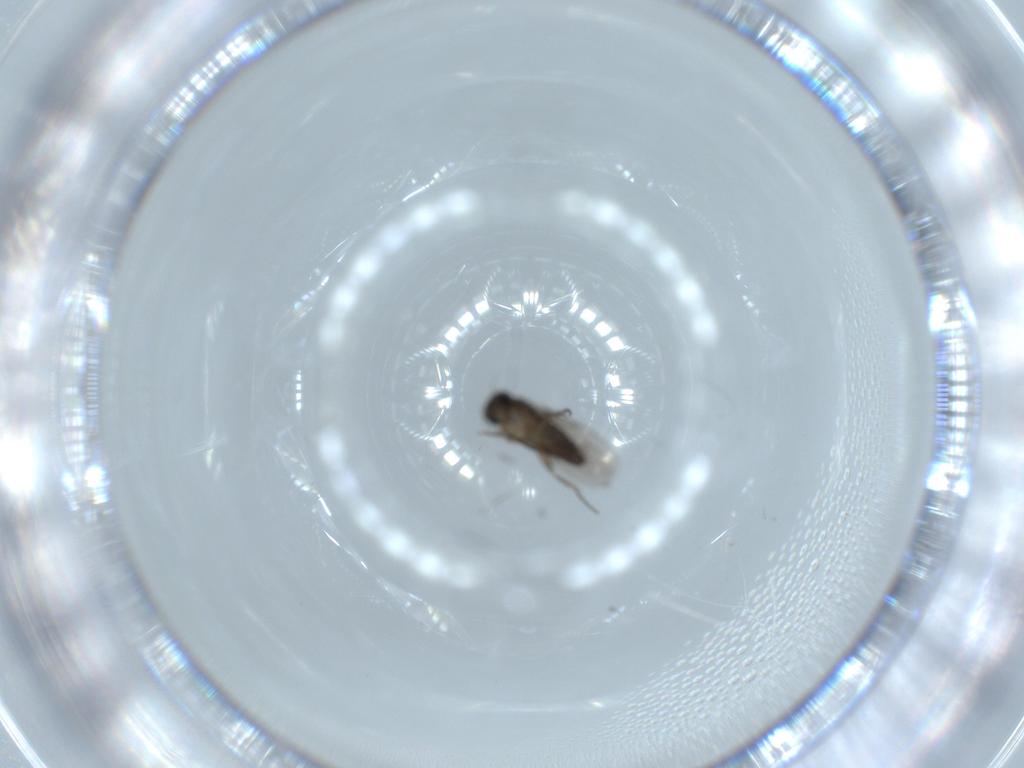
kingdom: Animalia
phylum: Arthropoda
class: Insecta
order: Diptera
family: Phoridae
